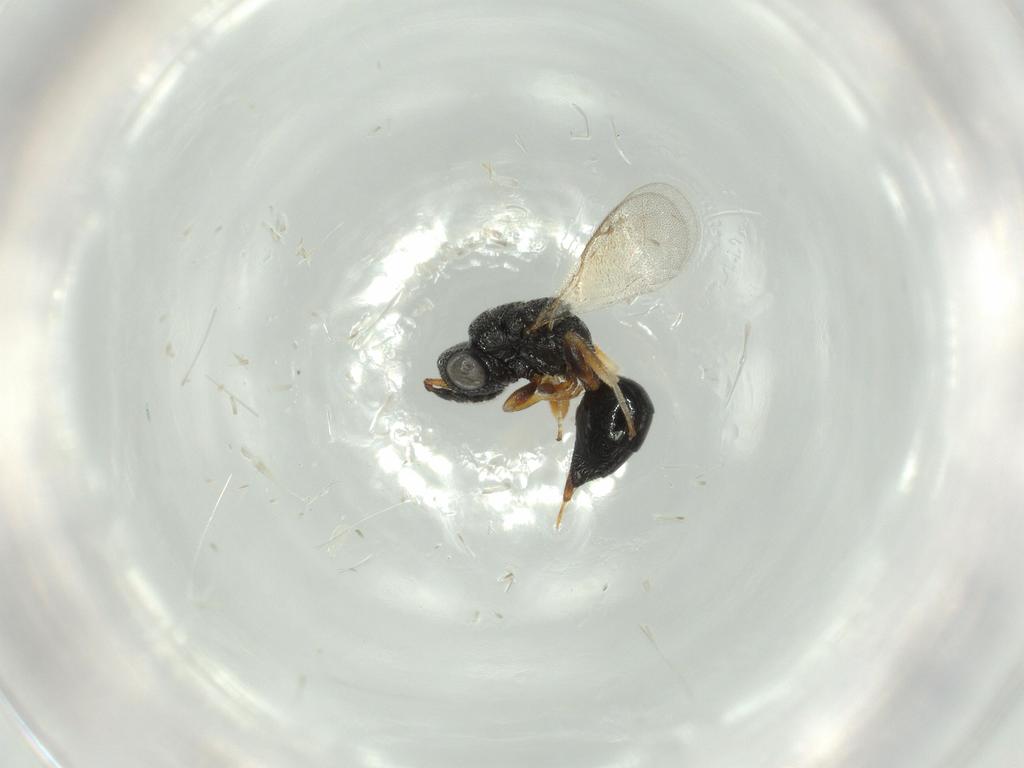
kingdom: Animalia
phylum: Arthropoda
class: Insecta
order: Hymenoptera
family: Eurytomidae
